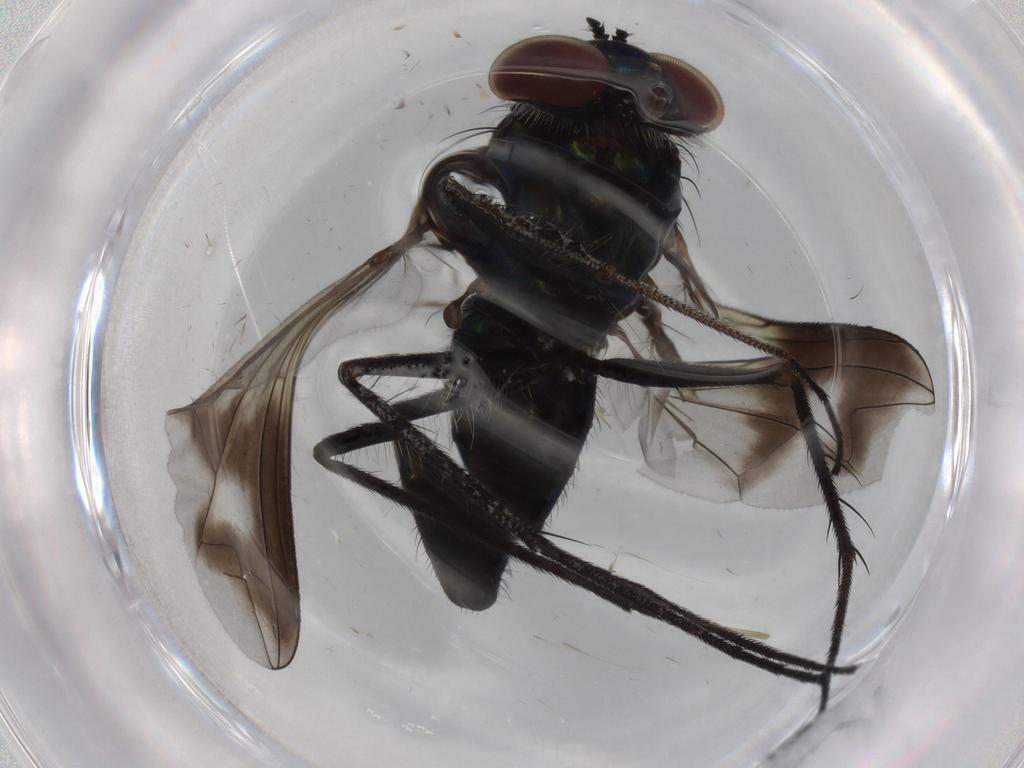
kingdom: Animalia
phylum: Arthropoda
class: Insecta
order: Diptera
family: Dolichopodidae
